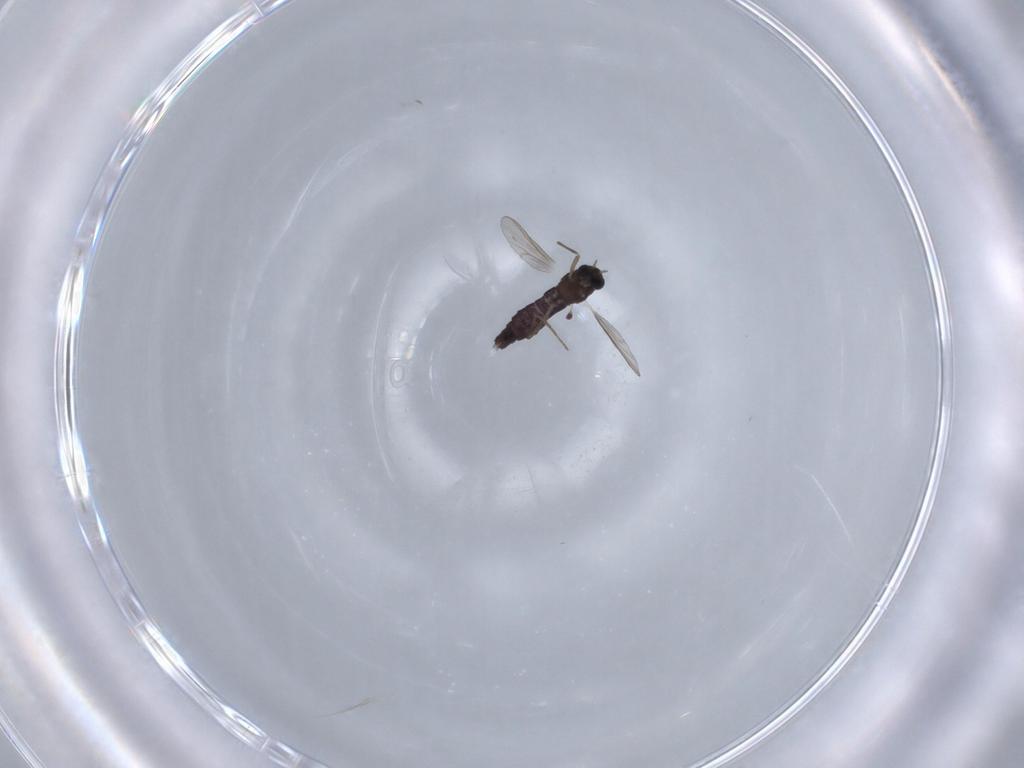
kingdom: Animalia
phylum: Arthropoda
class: Insecta
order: Diptera
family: Chironomidae
